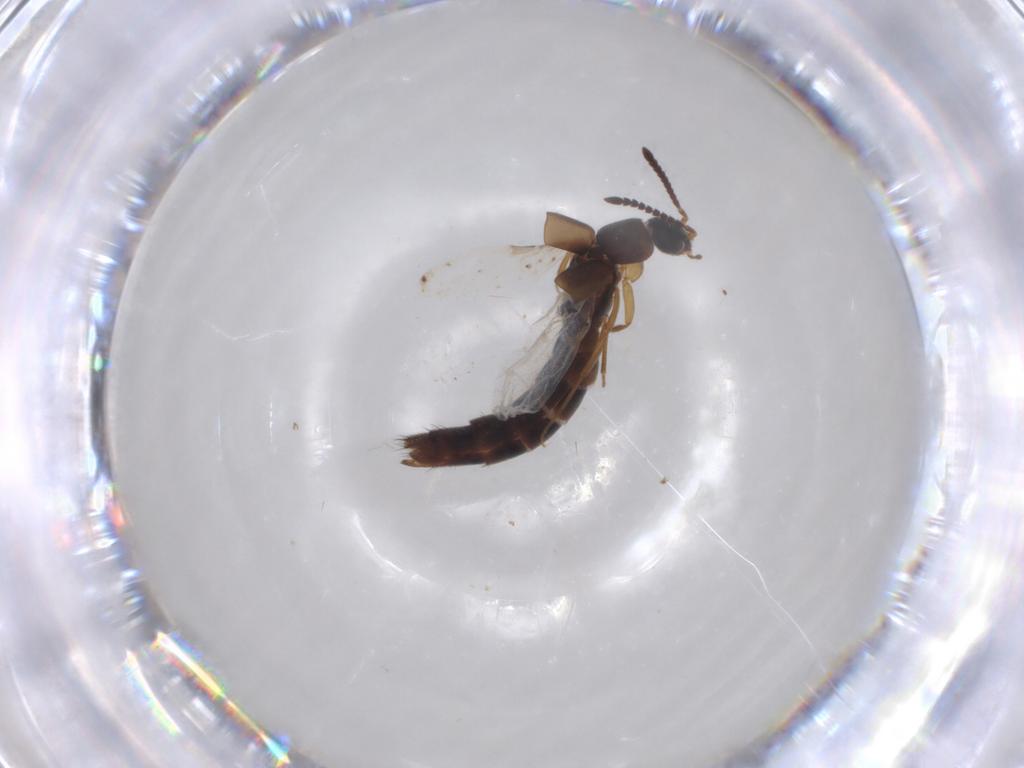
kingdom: Animalia
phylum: Arthropoda
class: Insecta
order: Coleoptera
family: Staphylinidae
